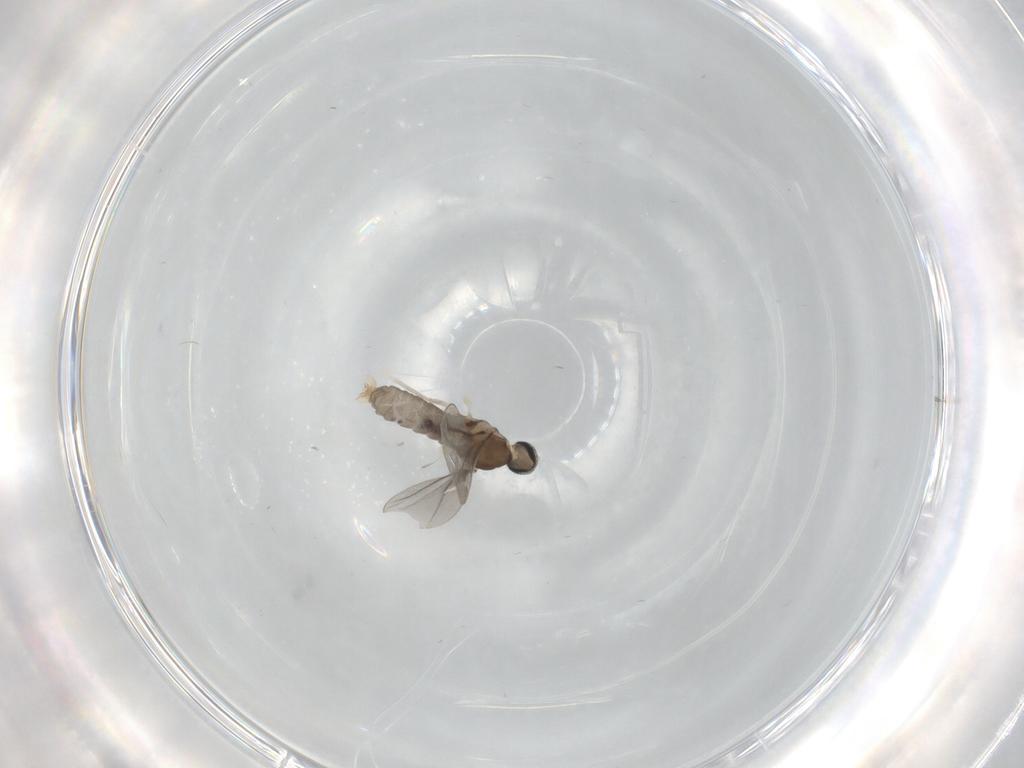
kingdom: Animalia
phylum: Arthropoda
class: Insecta
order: Diptera
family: Cecidomyiidae
